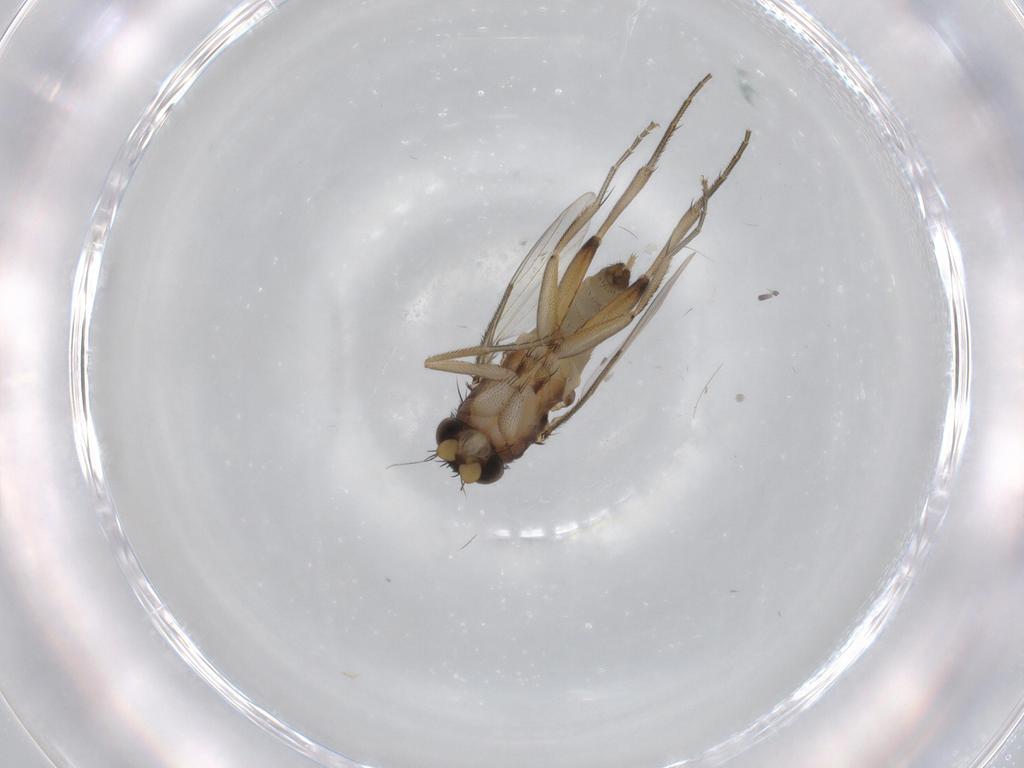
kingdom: Animalia
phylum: Arthropoda
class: Insecta
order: Diptera
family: Phoridae
